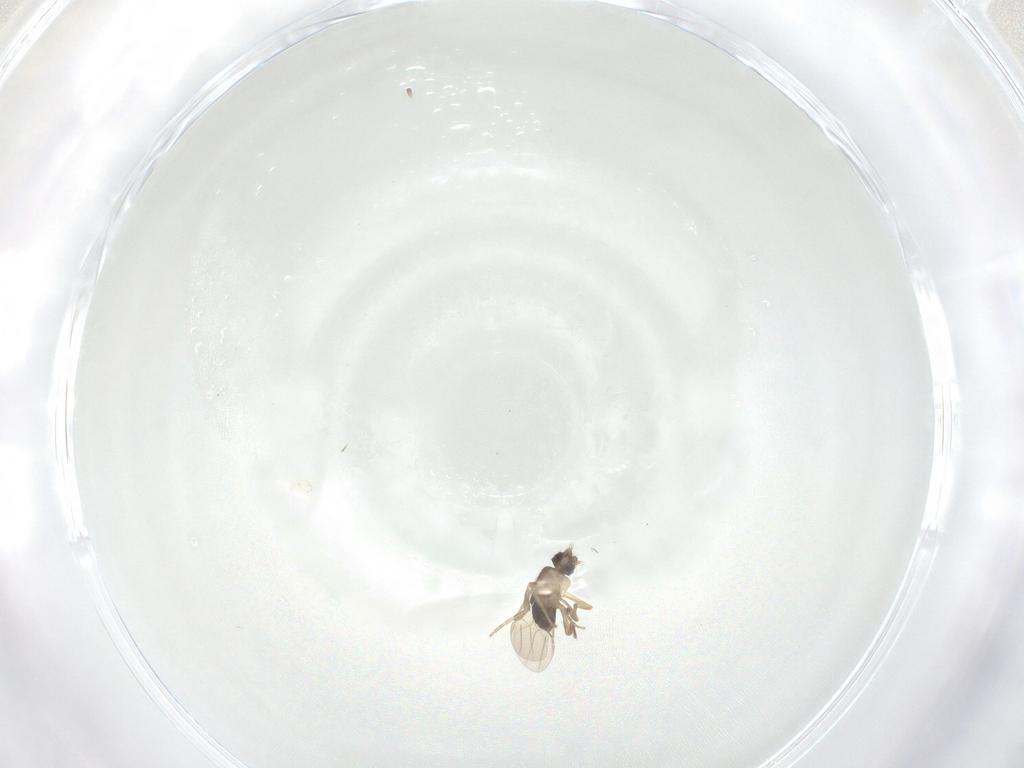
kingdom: Animalia
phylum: Arthropoda
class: Insecta
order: Diptera
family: Phoridae
